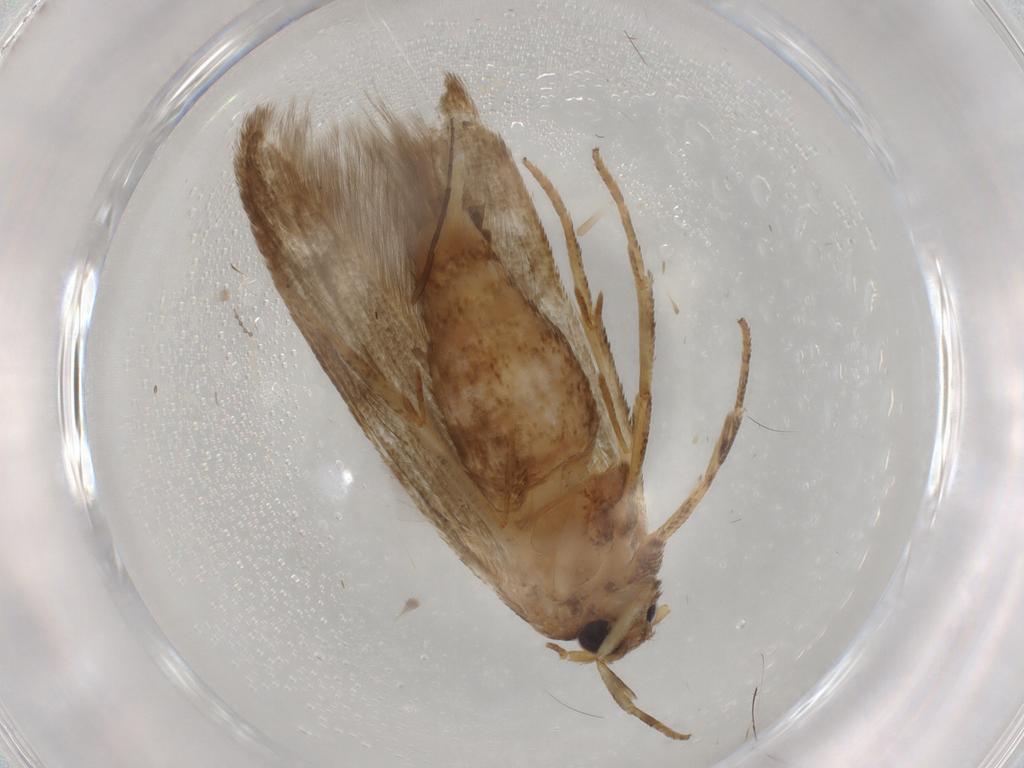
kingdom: Animalia
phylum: Arthropoda
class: Insecta
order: Lepidoptera
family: Blastobasidae
